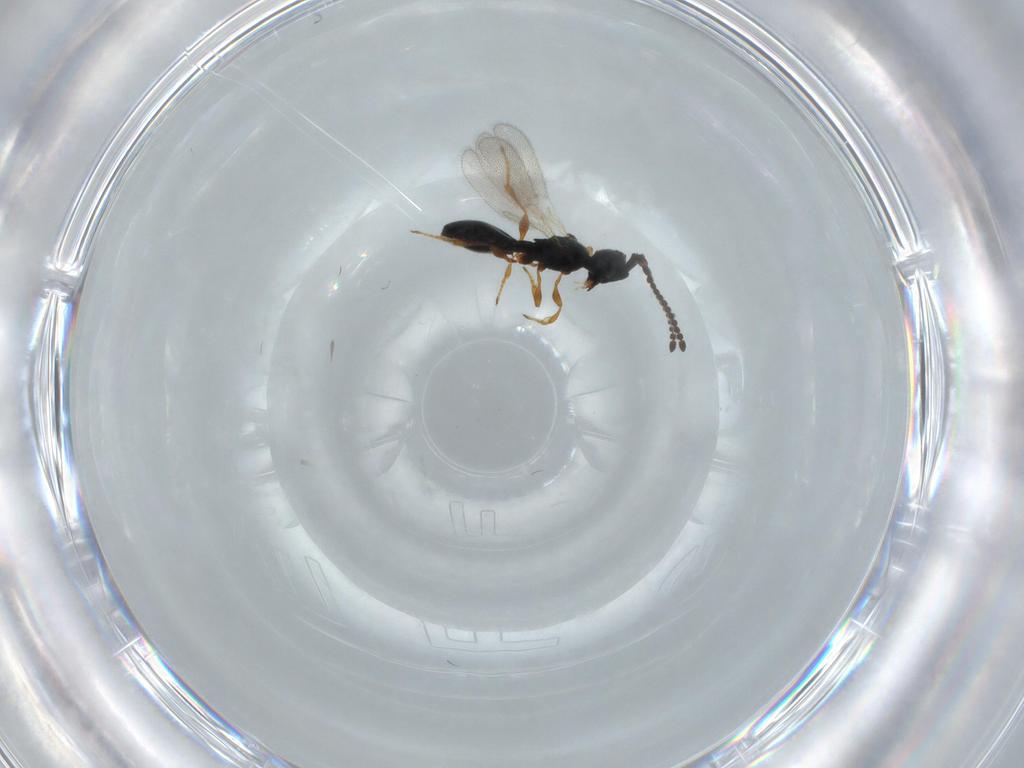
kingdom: Animalia
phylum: Arthropoda
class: Insecta
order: Hymenoptera
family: Diapriidae
